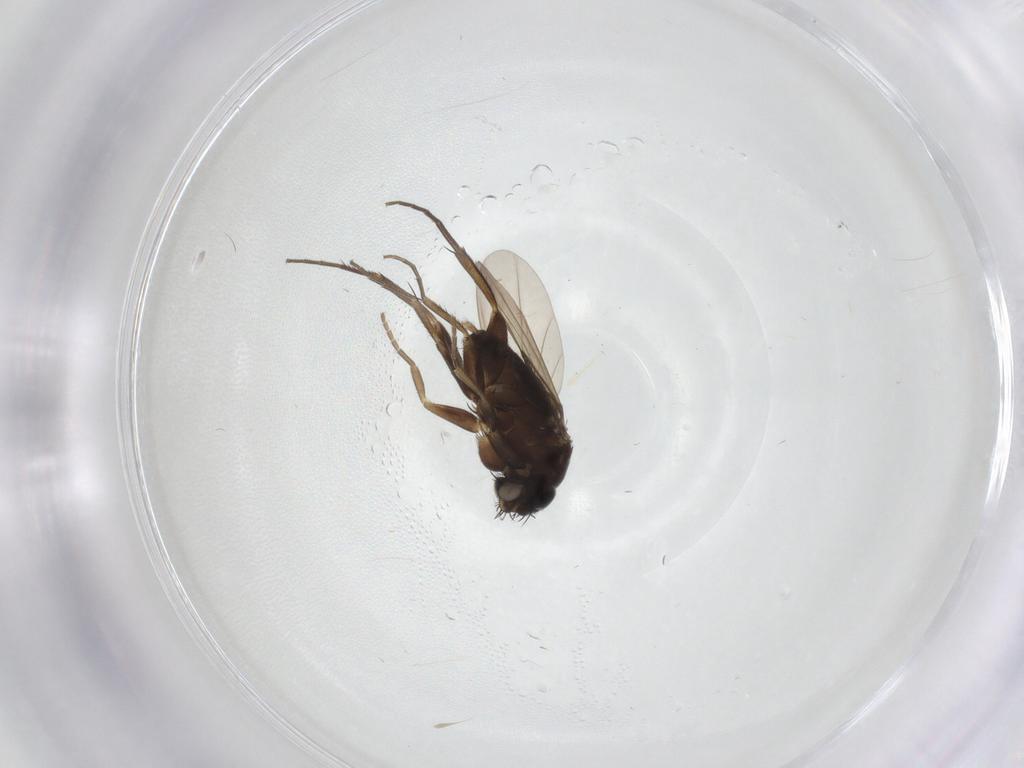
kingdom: Animalia
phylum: Arthropoda
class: Insecta
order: Diptera
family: Phoridae
